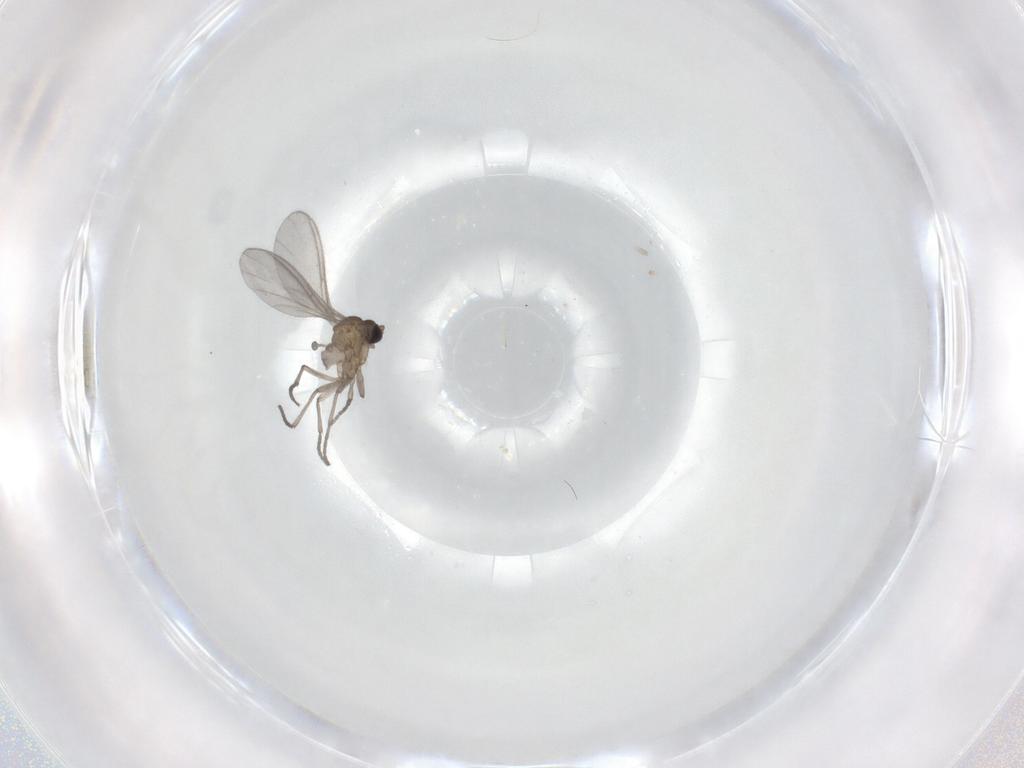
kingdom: Animalia
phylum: Arthropoda
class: Insecta
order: Diptera
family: Sciaridae
